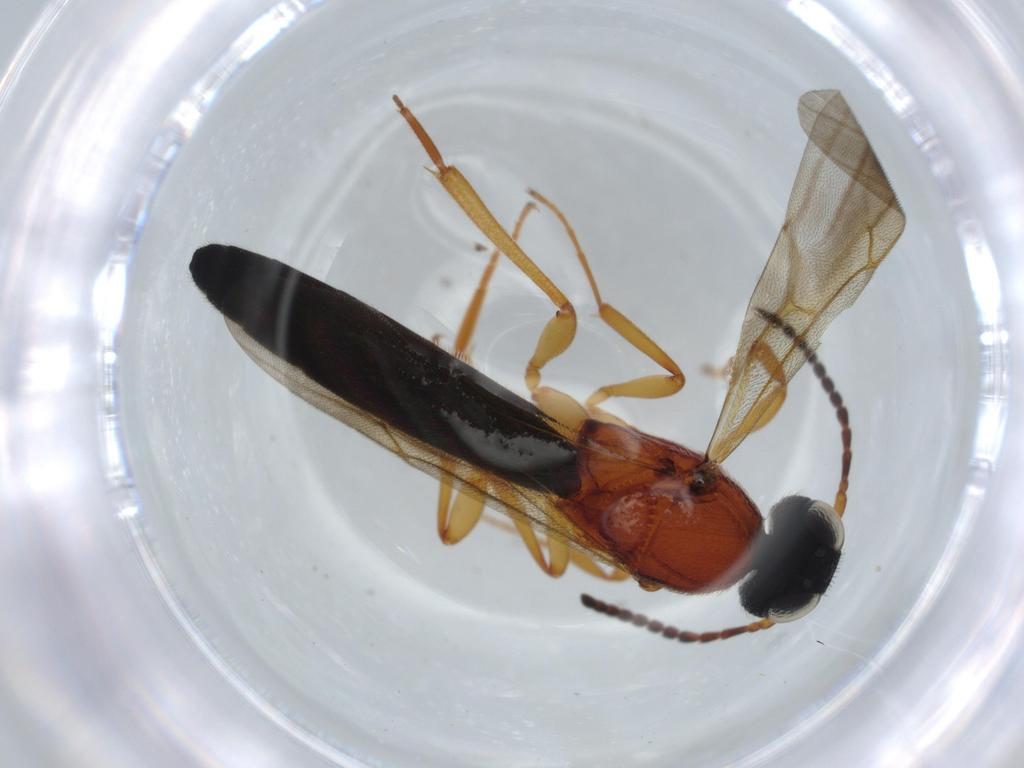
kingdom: Animalia
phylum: Arthropoda
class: Insecta
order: Hymenoptera
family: Scelionidae
